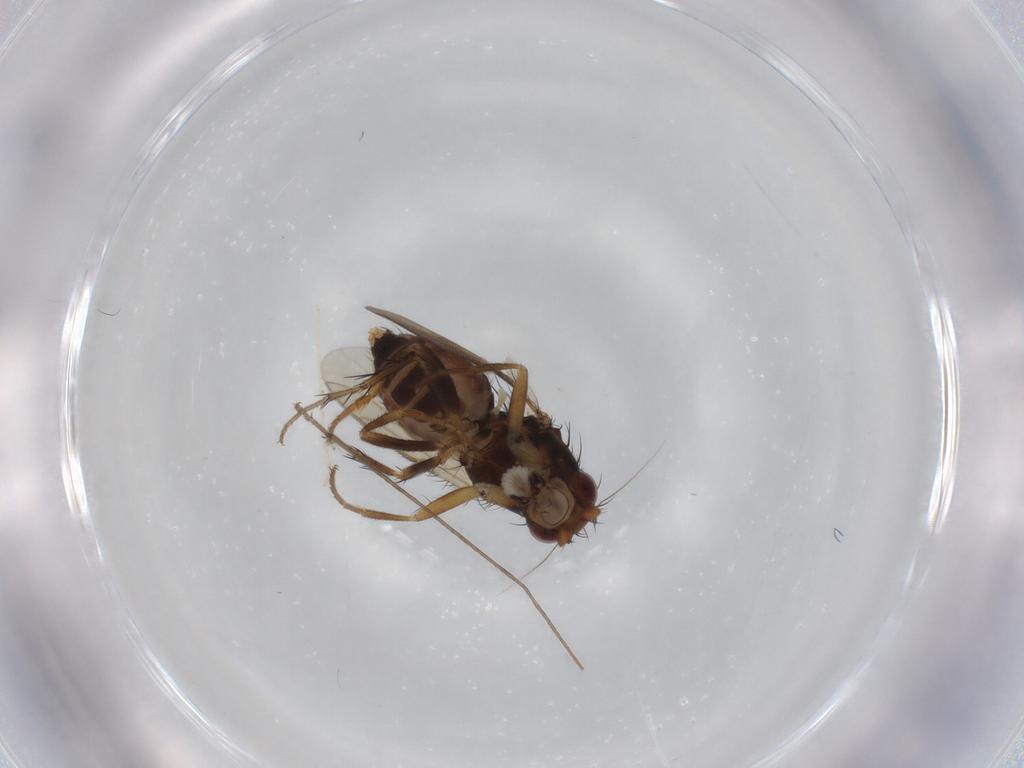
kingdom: Animalia
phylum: Arthropoda
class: Insecta
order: Diptera
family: Sphaeroceridae
